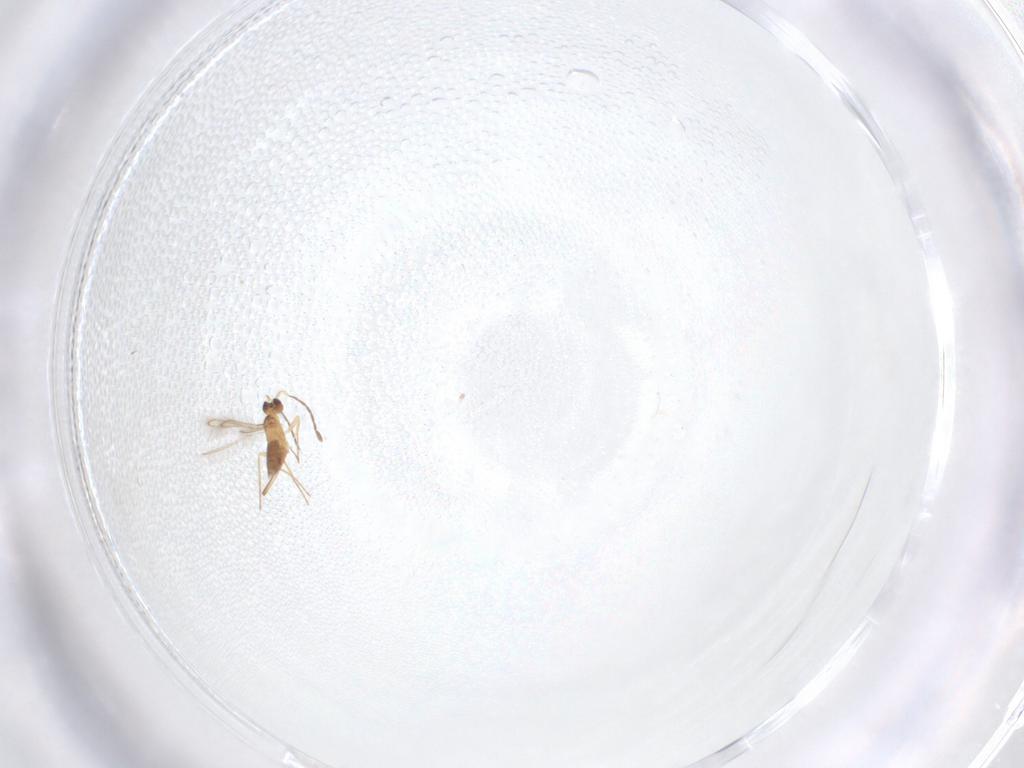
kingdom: Animalia
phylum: Arthropoda
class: Insecta
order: Hymenoptera
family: Mymaridae
